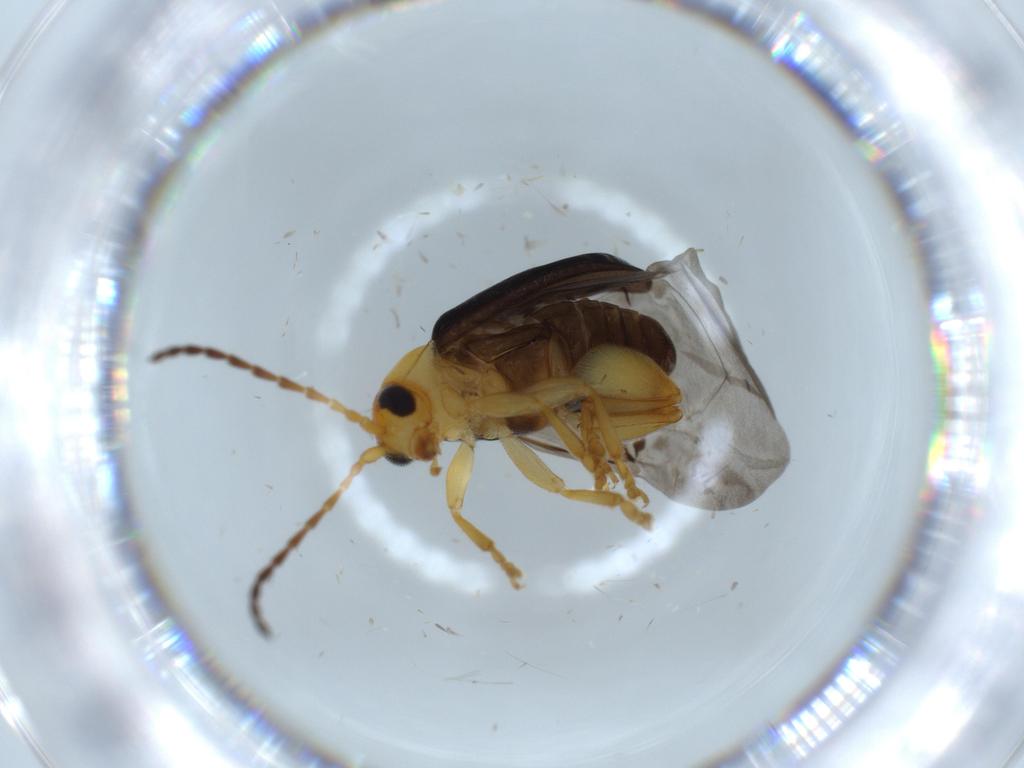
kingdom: Animalia
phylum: Arthropoda
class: Insecta
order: Coleoptera
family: Chrysomelidae
